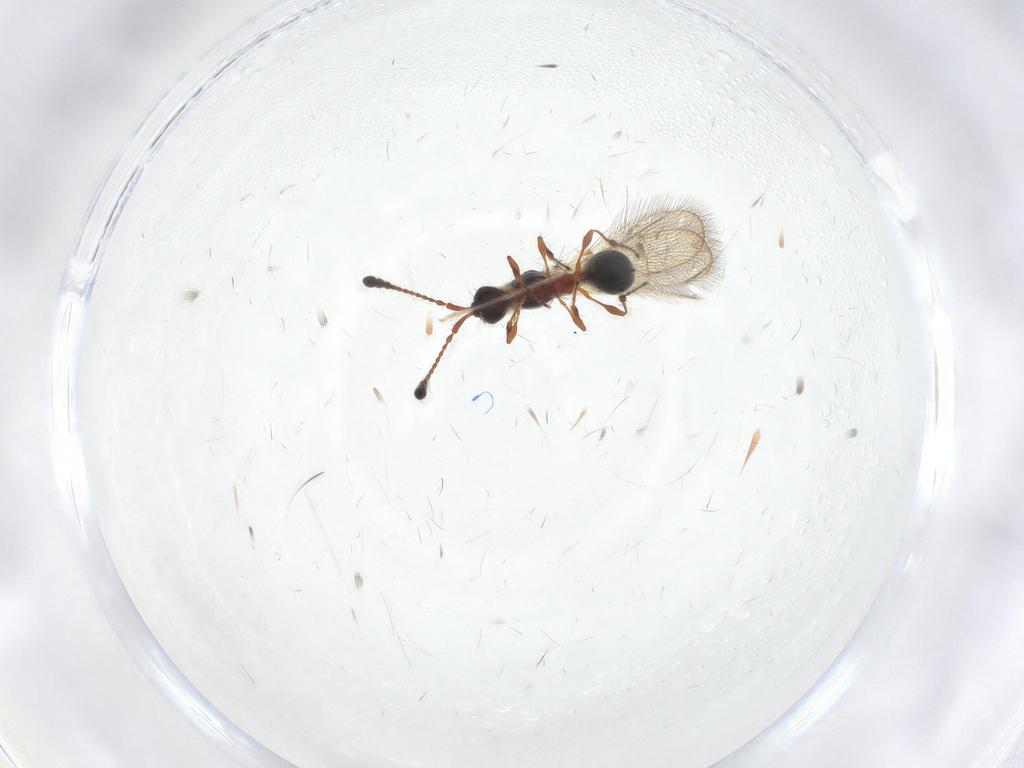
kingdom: Animalia
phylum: Arthropoda
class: Insecta
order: Hymenoptera
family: Diapriidae
